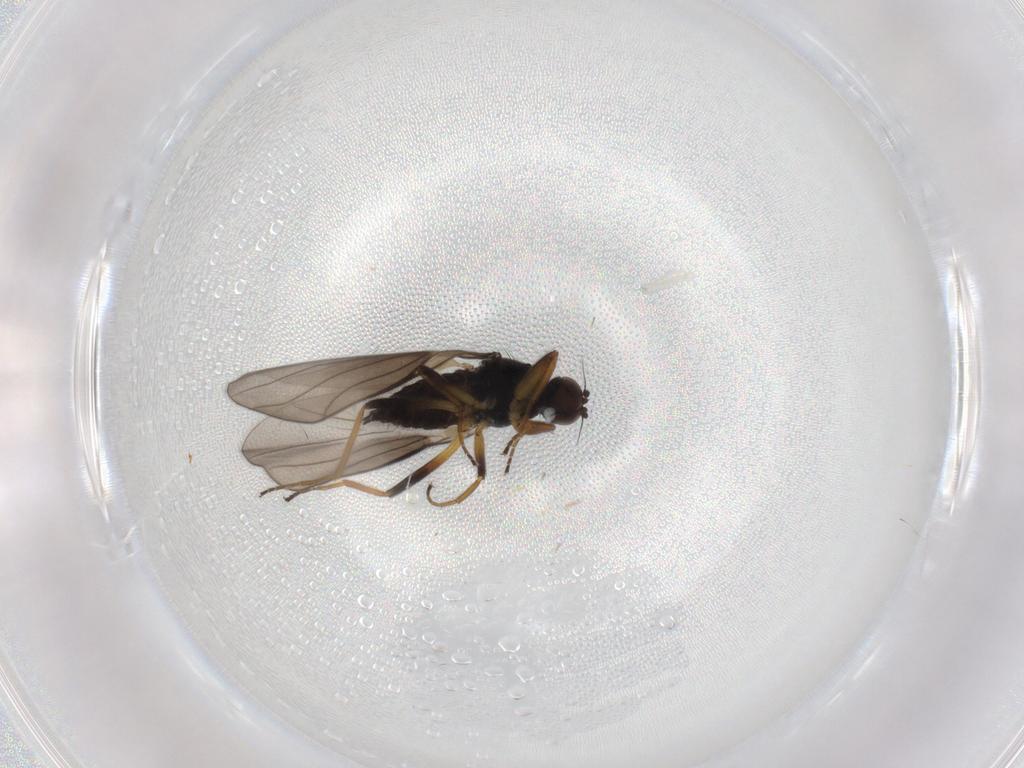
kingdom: Animalia
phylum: Arthropoda
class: Insecta
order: Diptera
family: Hybotidae
